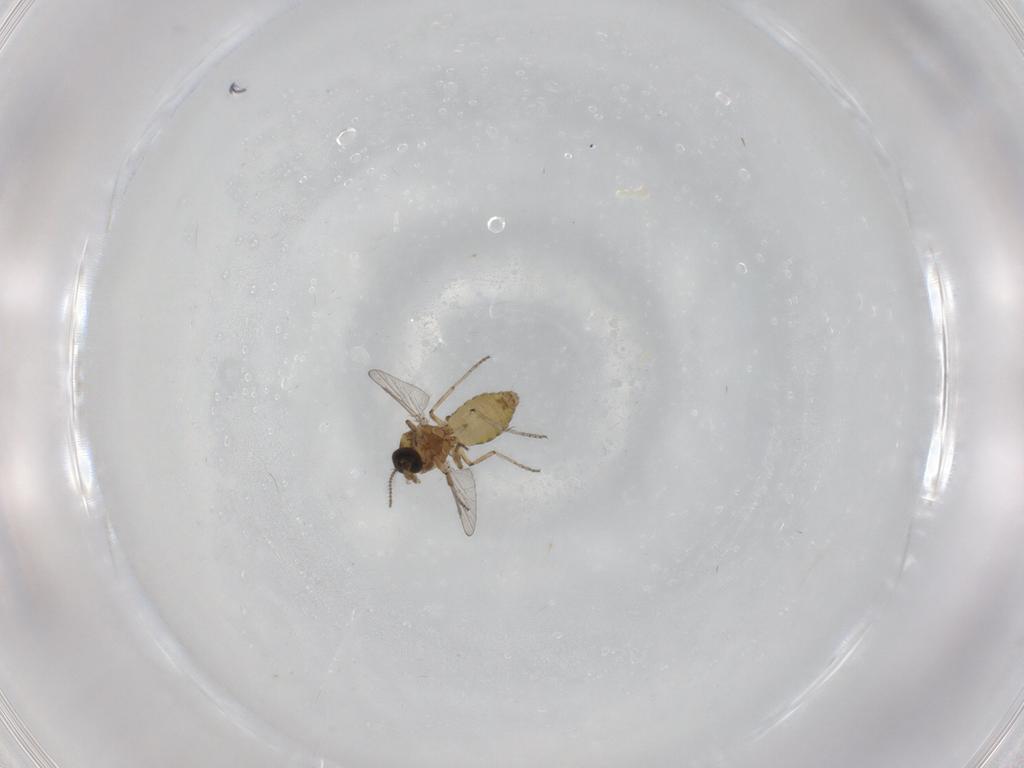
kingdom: Animalia
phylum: Arthropoda
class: Insecta
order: Diptera
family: Ceratopogonidae
